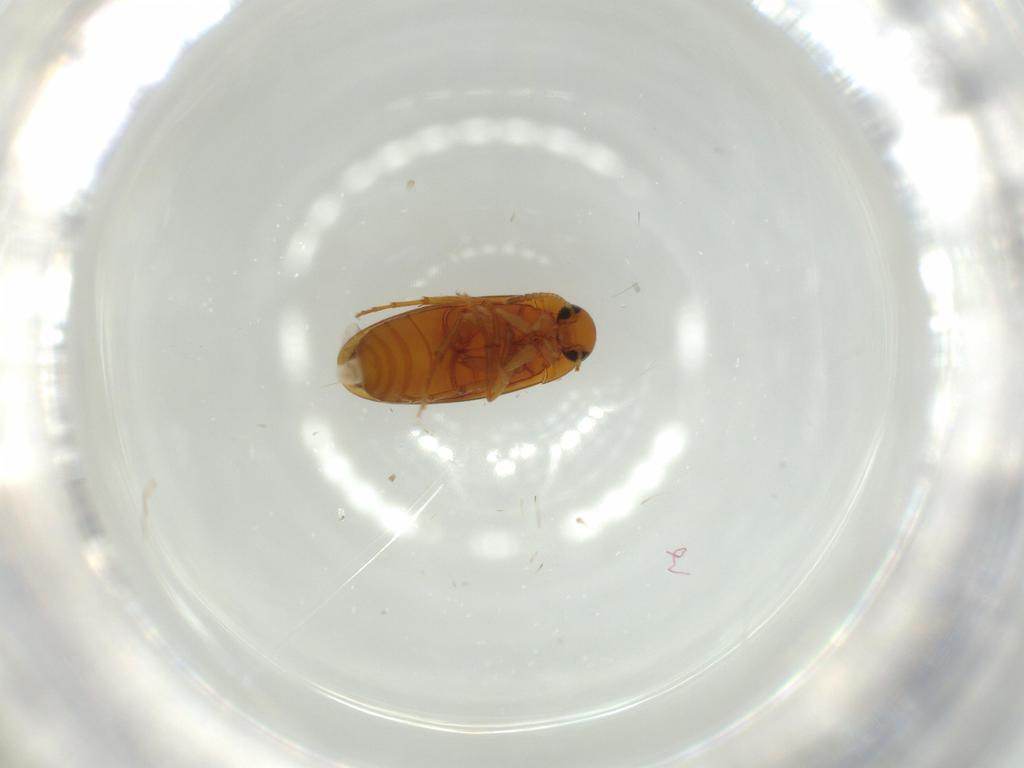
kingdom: Animalia
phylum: Arthropoda
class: Insecta
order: Coleoptera
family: Scraptiidae
